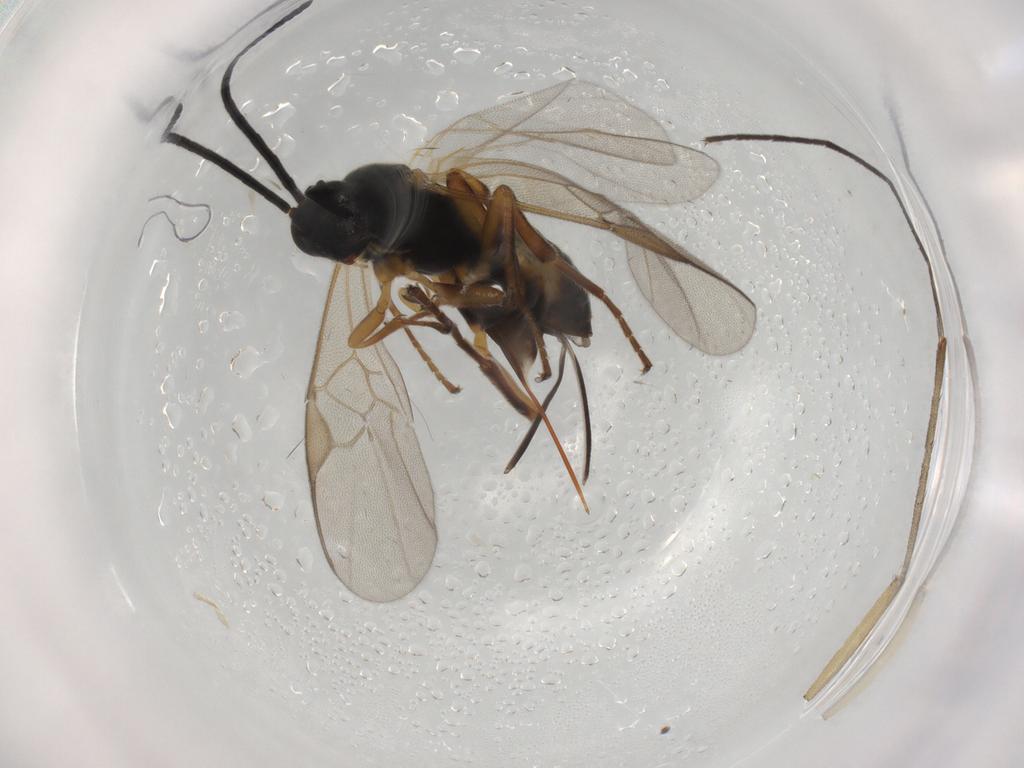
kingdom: Animalia
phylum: Arthropoda
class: Insecta
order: Hymenoptera
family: Braconidae
